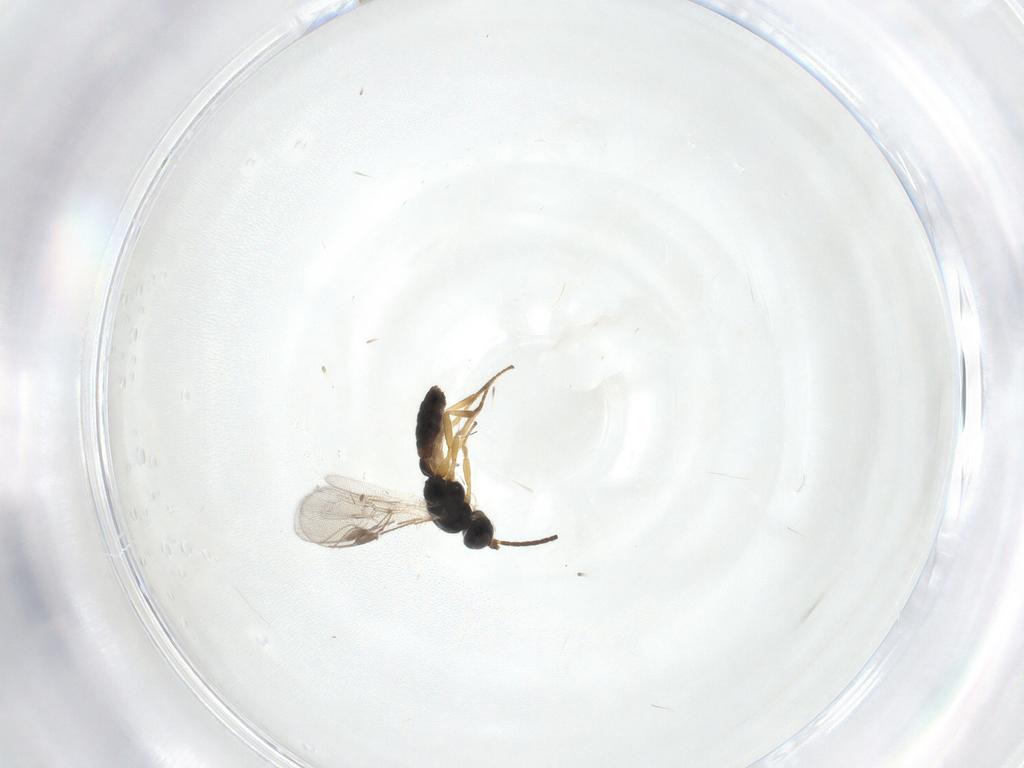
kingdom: Animalia
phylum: Arthropoda
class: Insecta
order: Hymenoptera
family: Braconidae
